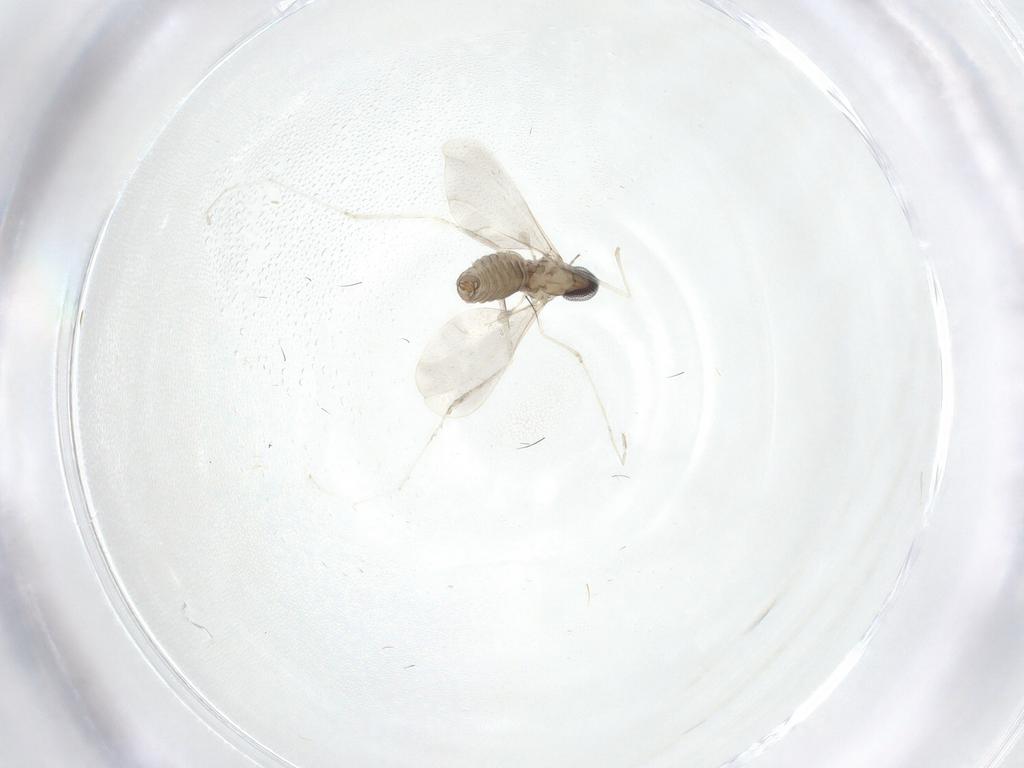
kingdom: Animalia
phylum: Arthropoda
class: Insecta
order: Diptera
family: Cecidomyiidae
